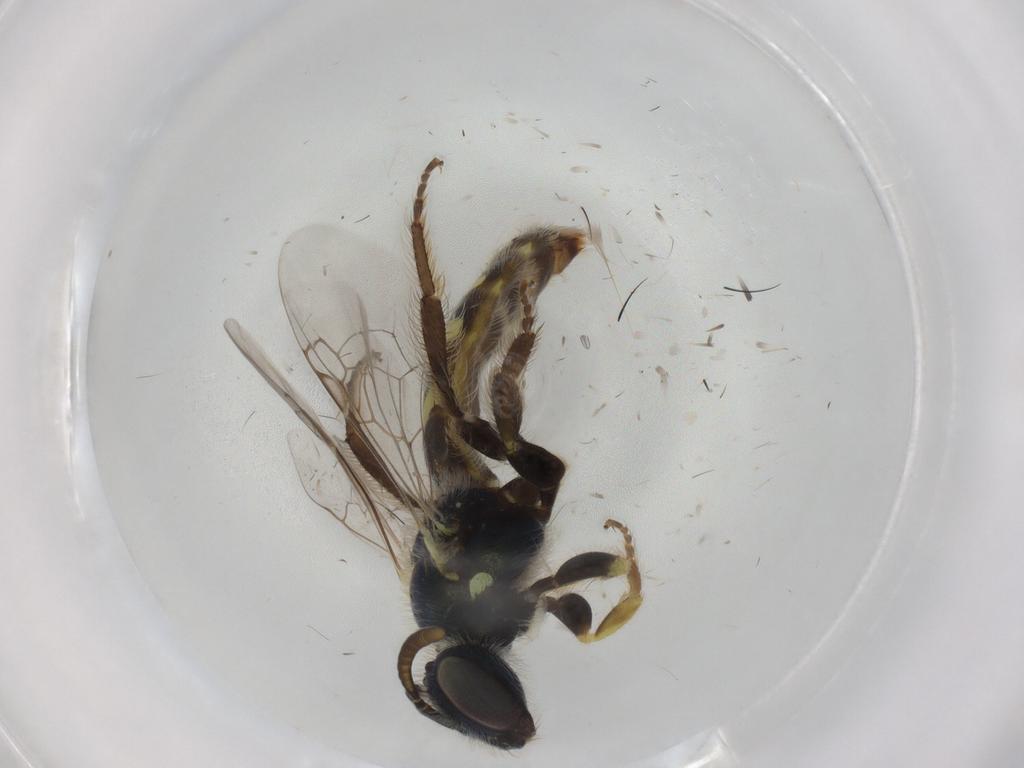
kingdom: Animalia
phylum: Arthropoda
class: Insecta
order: Hymenoptera
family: Andrenidae
